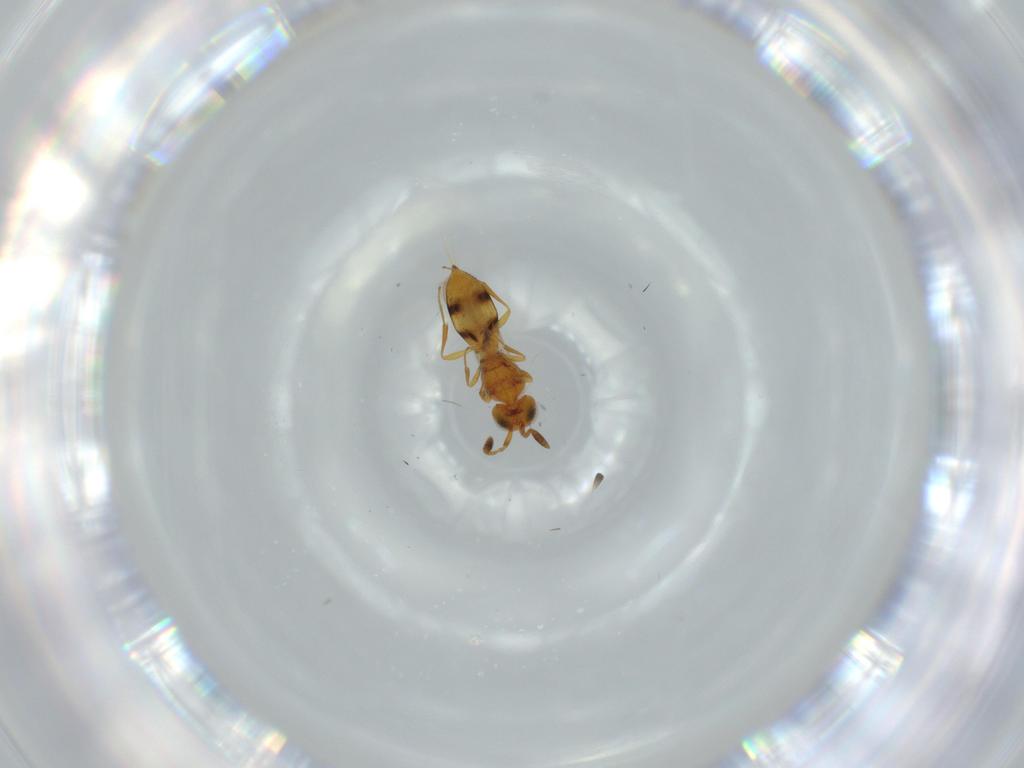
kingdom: Animalia
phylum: Arthropoda
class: Insecta
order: Hymenoptera
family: Scelionidae
